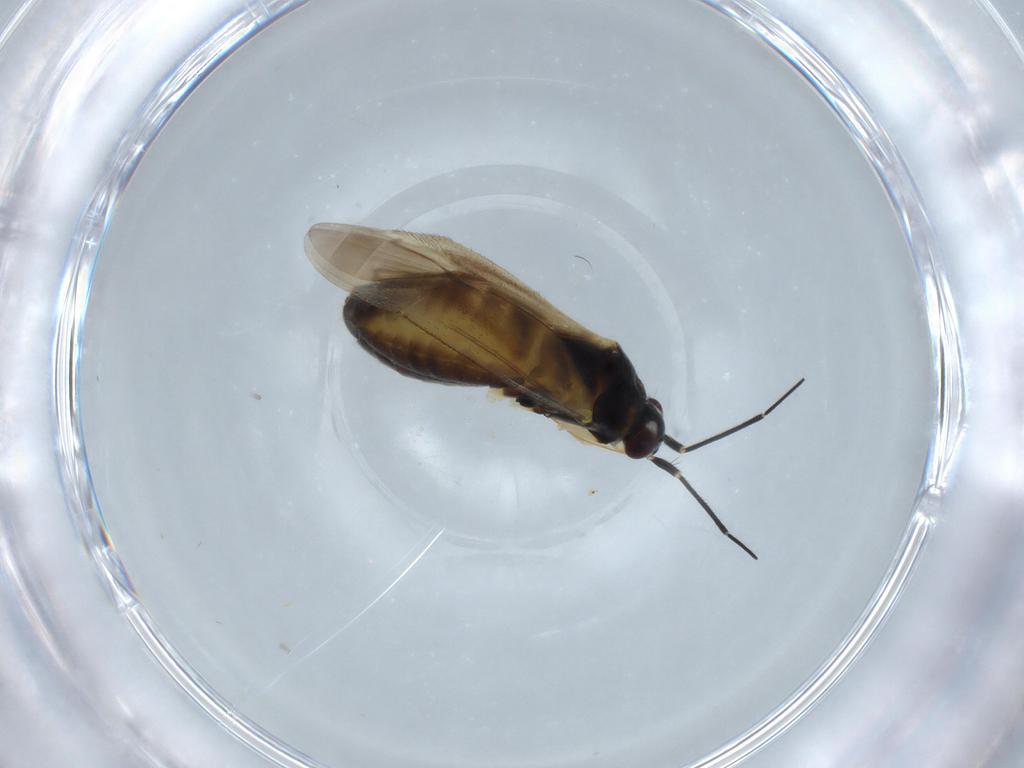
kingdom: Animalia
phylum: Arthropoda
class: Insecta
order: Hemiptera
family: Miridae
